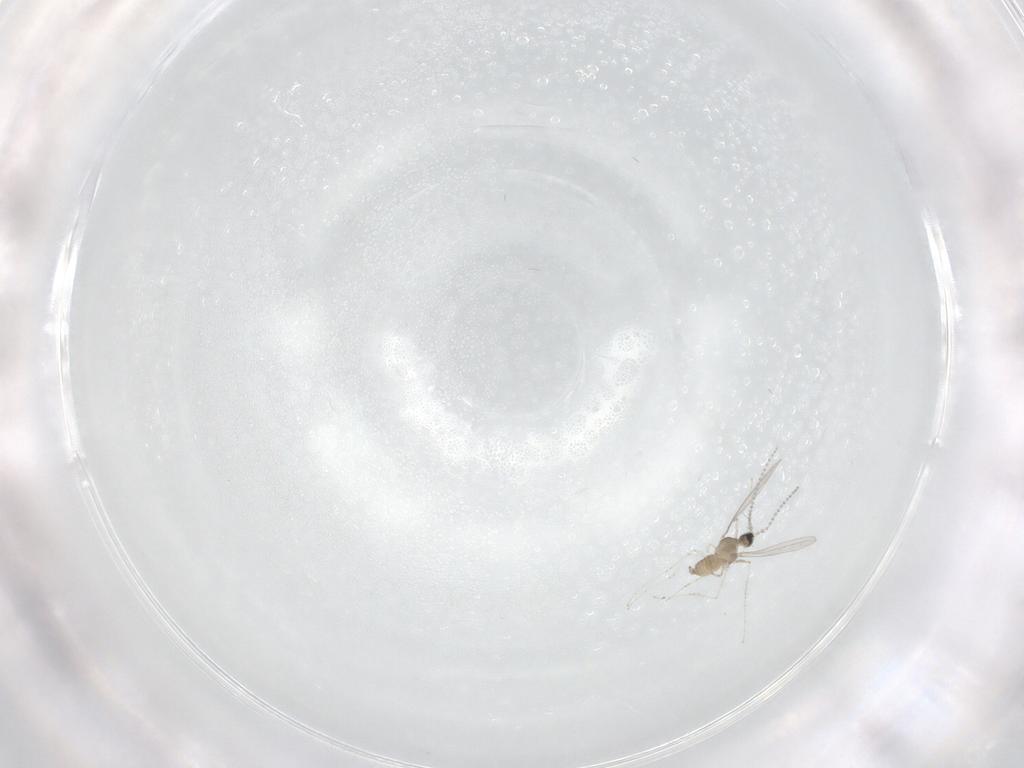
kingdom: Animalia
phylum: Arthropoda
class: Insecta
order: Diptera
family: Cecidomyiidae
